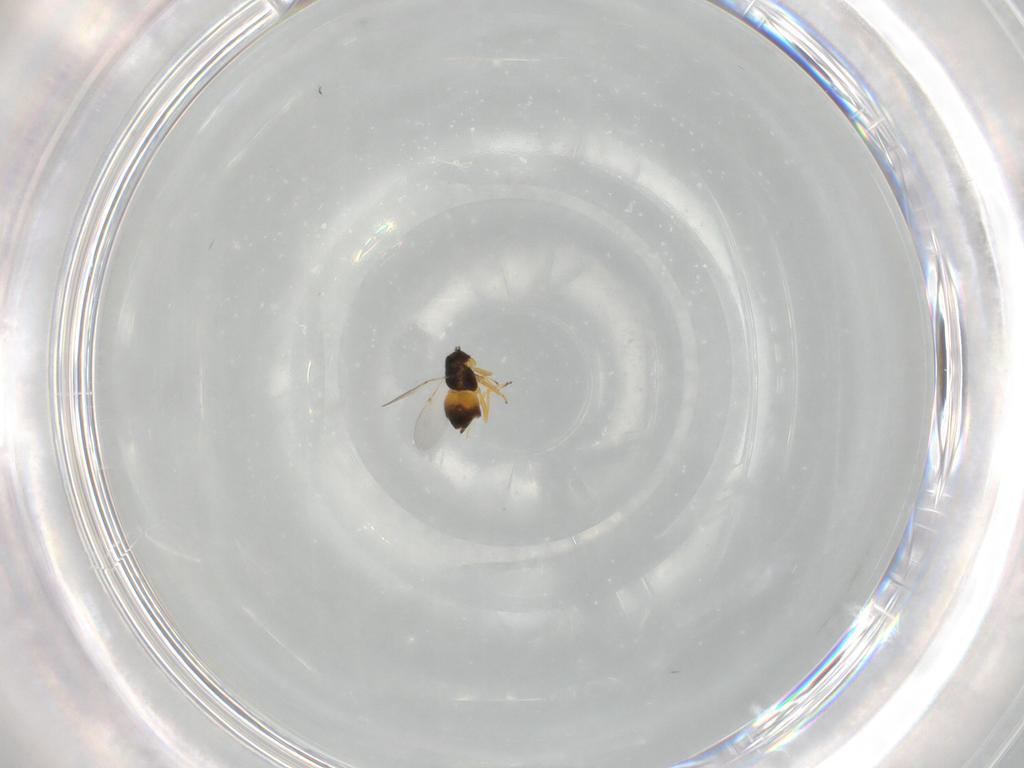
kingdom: Animalia
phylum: Arthropoda
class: Insecta
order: Hymenoptera
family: Encyrtidae
